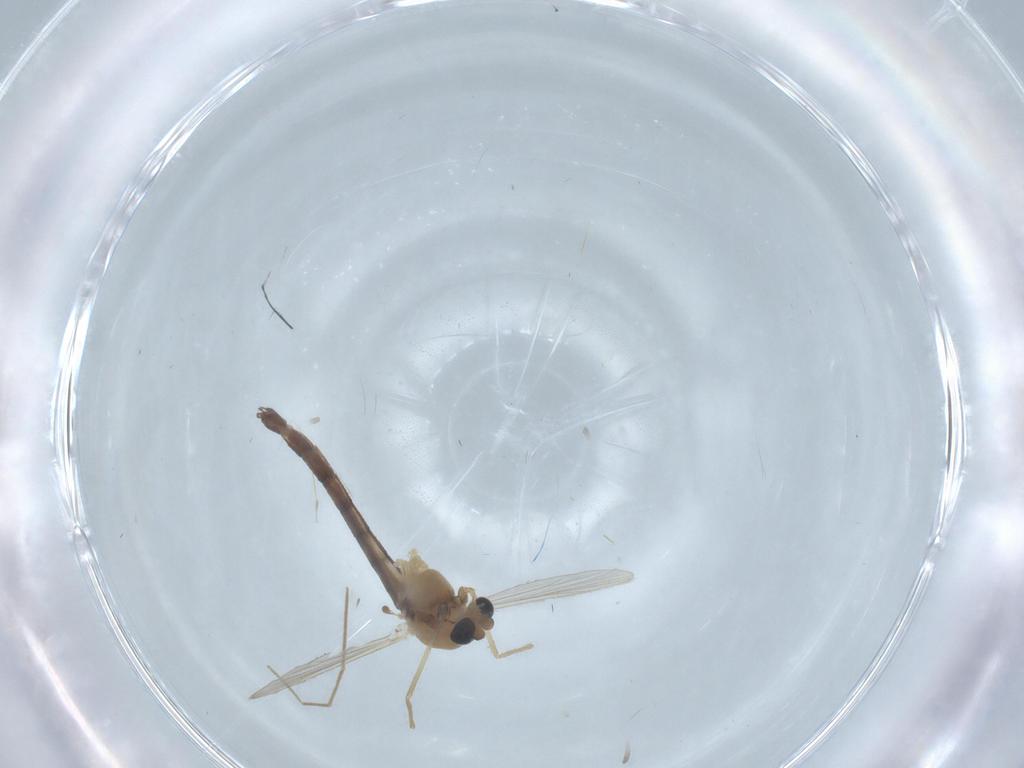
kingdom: Animalia
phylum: Arthropoda
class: Insecta
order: Diptera
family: Chironomidae
